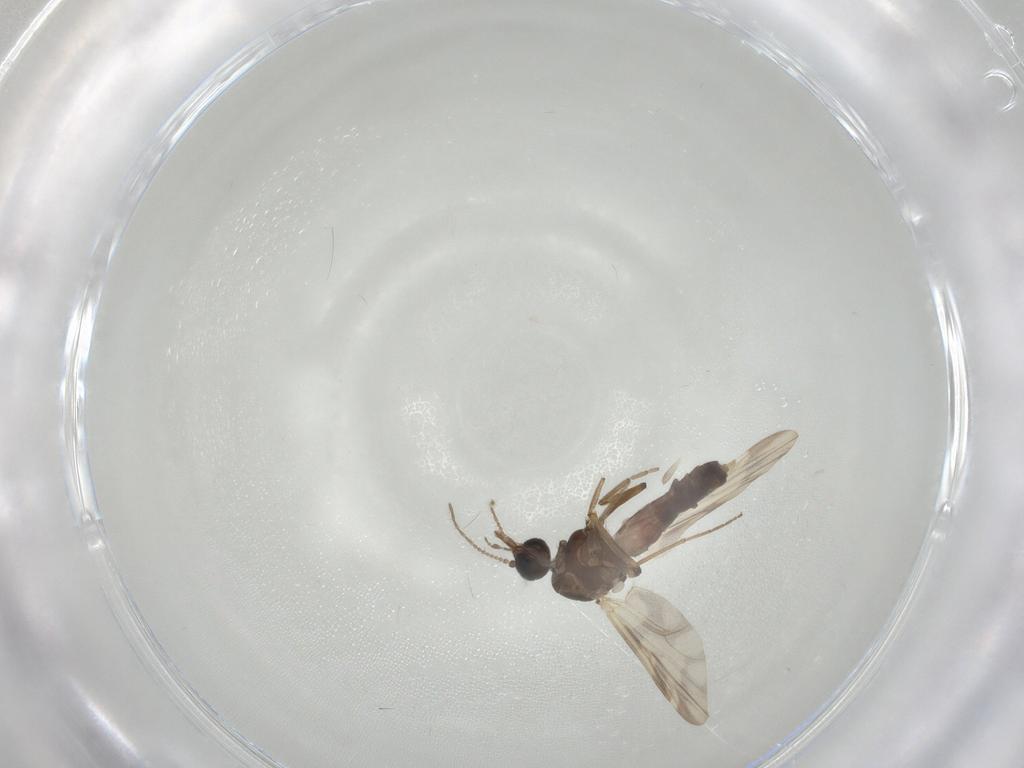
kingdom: Animalia
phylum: Arthropoda
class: Insecta
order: Diptera
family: Ceratopogonidae
